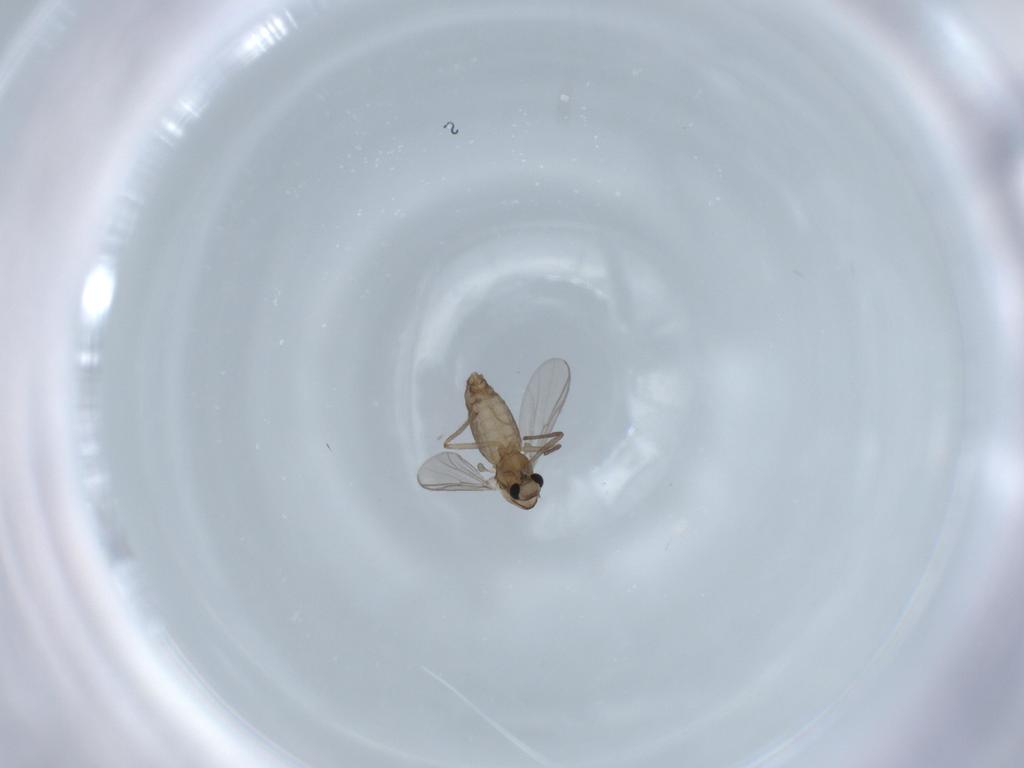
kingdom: Animalia
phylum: Arthropoda
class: Insecta
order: Diptera
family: Chironomidae
